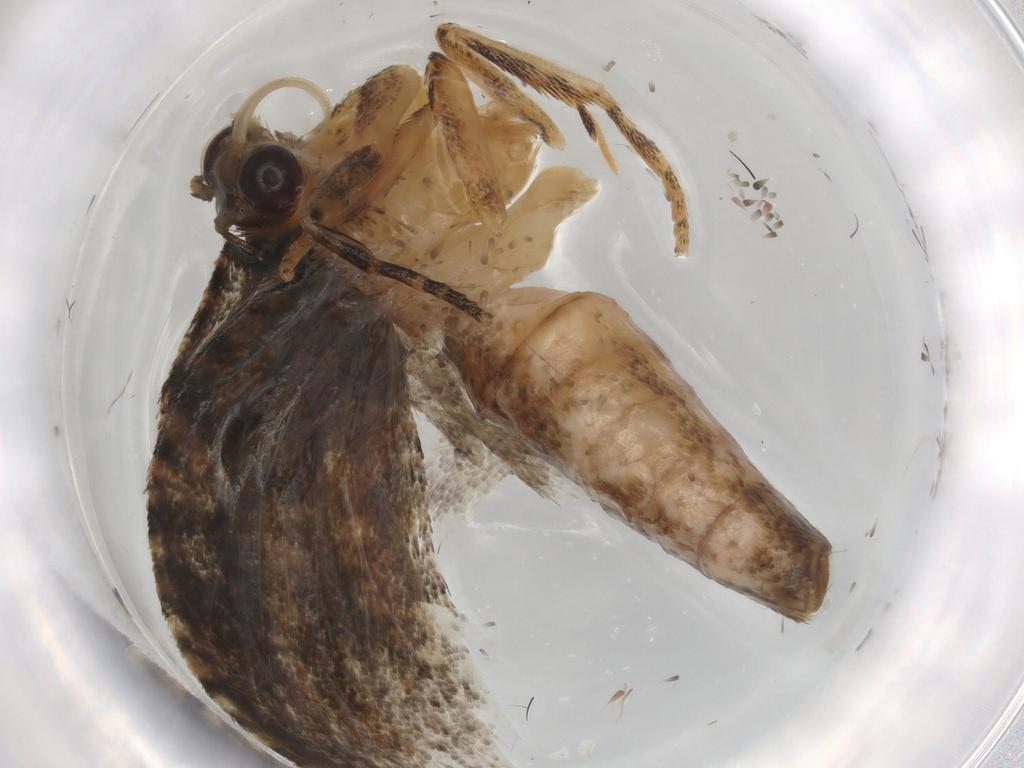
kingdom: Animalia
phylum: Arthropoda
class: Insecta
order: Lepidoptera
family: Tortricidae
